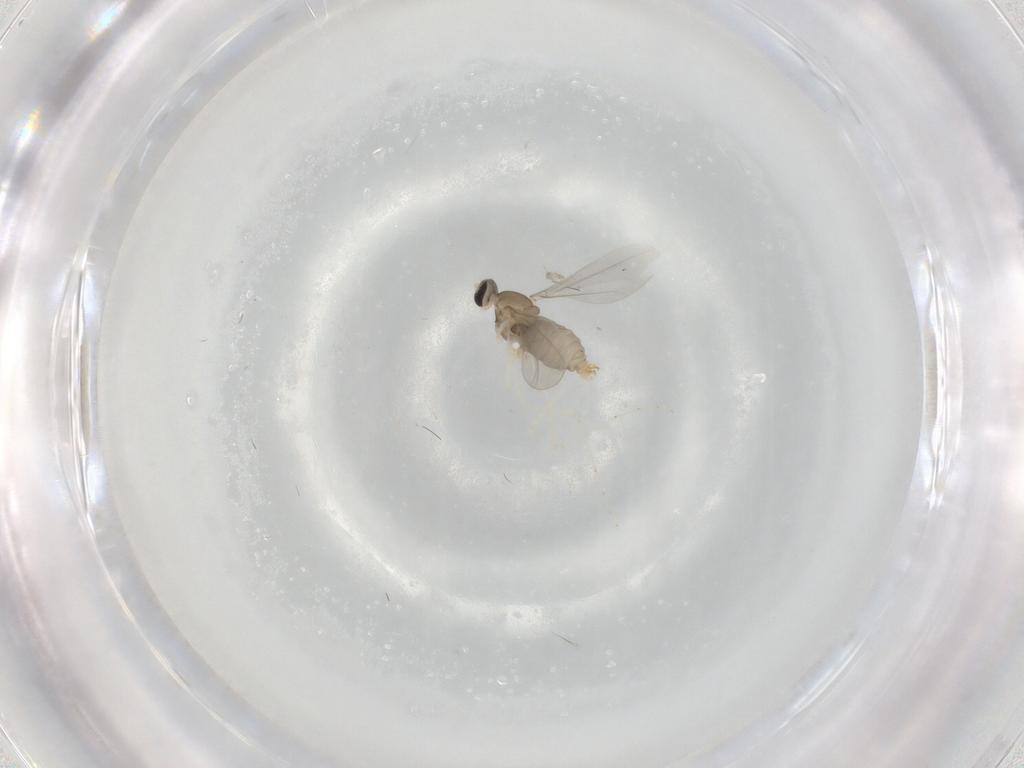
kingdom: Animalia
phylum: Arthropoda
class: Insecta
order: Diptera
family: Cecidomyiidae
